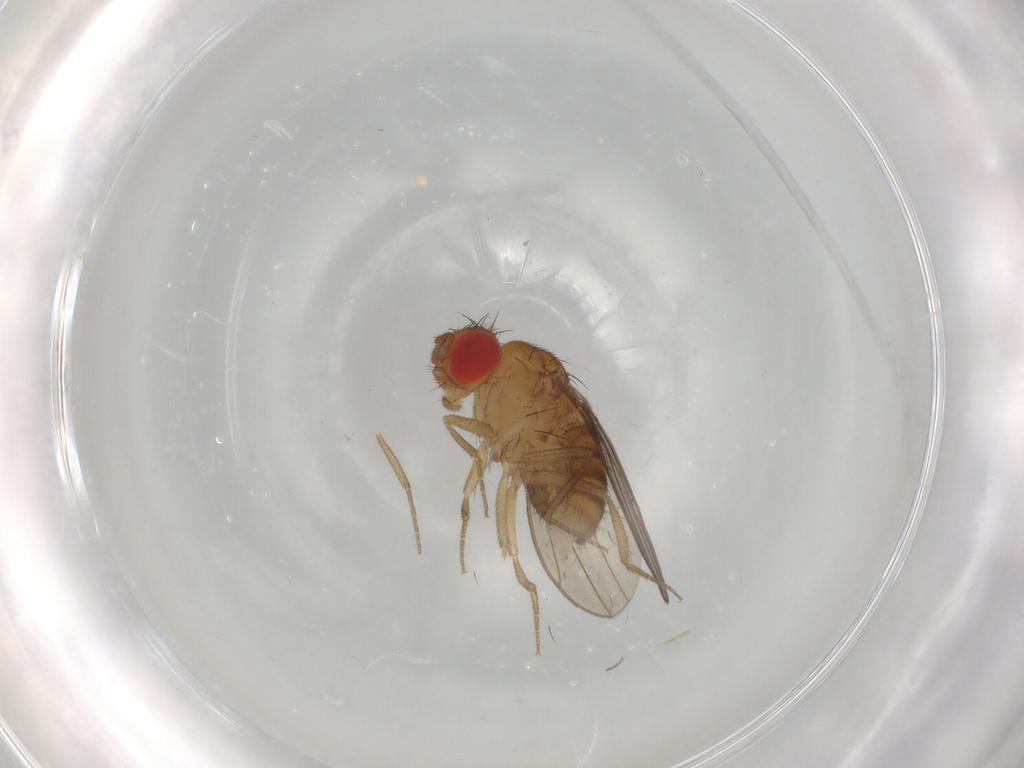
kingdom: Animalia
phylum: Arthropoda
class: Insecta
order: Diptera
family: Drosophilidae
